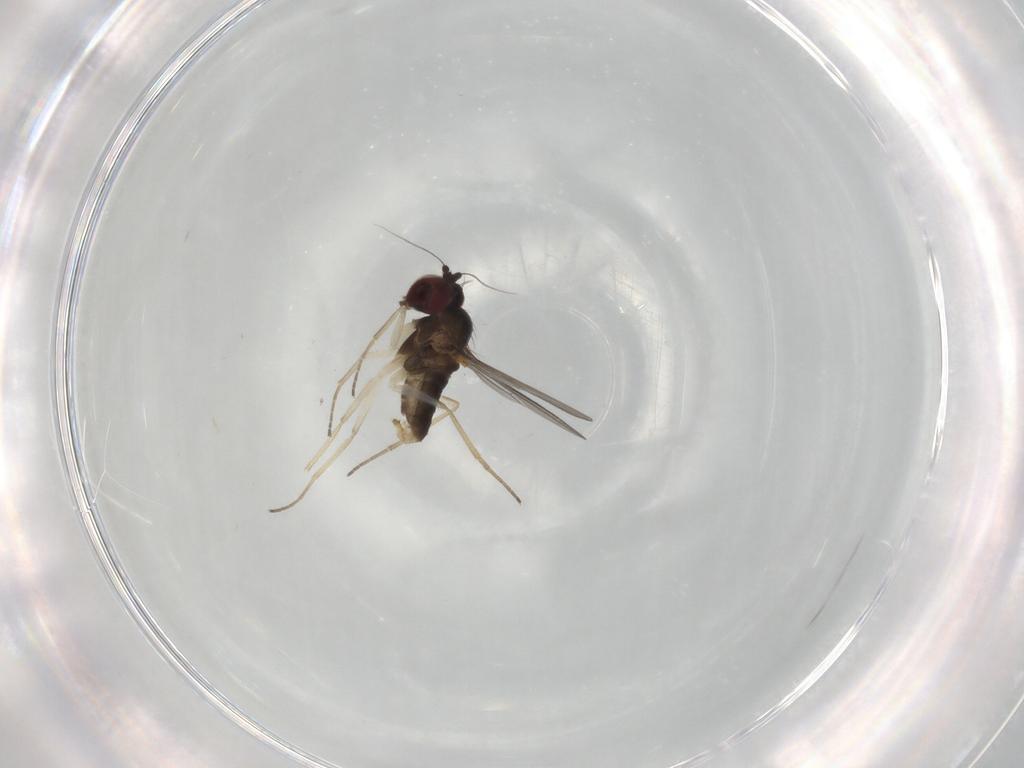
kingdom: Animalia
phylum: Arthropoda
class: Insecta
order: Diptera
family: Dolichopodidae
